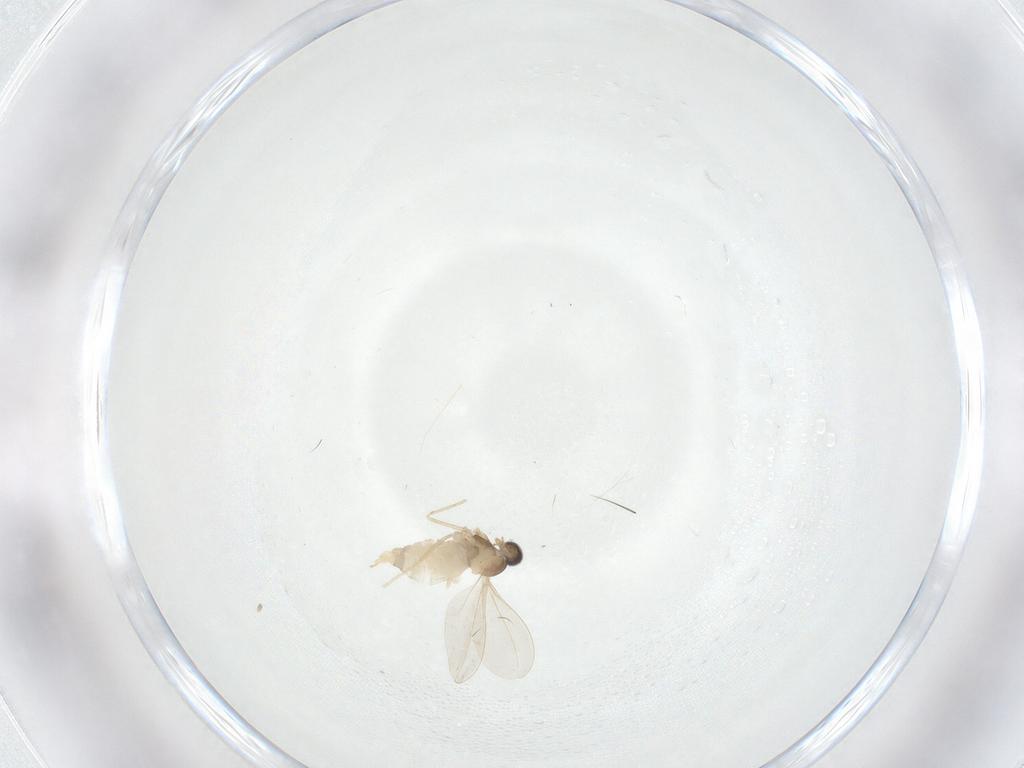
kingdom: Animalia
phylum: Arthropoda
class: Insecta
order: Diptera
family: Cecidomyiidae
